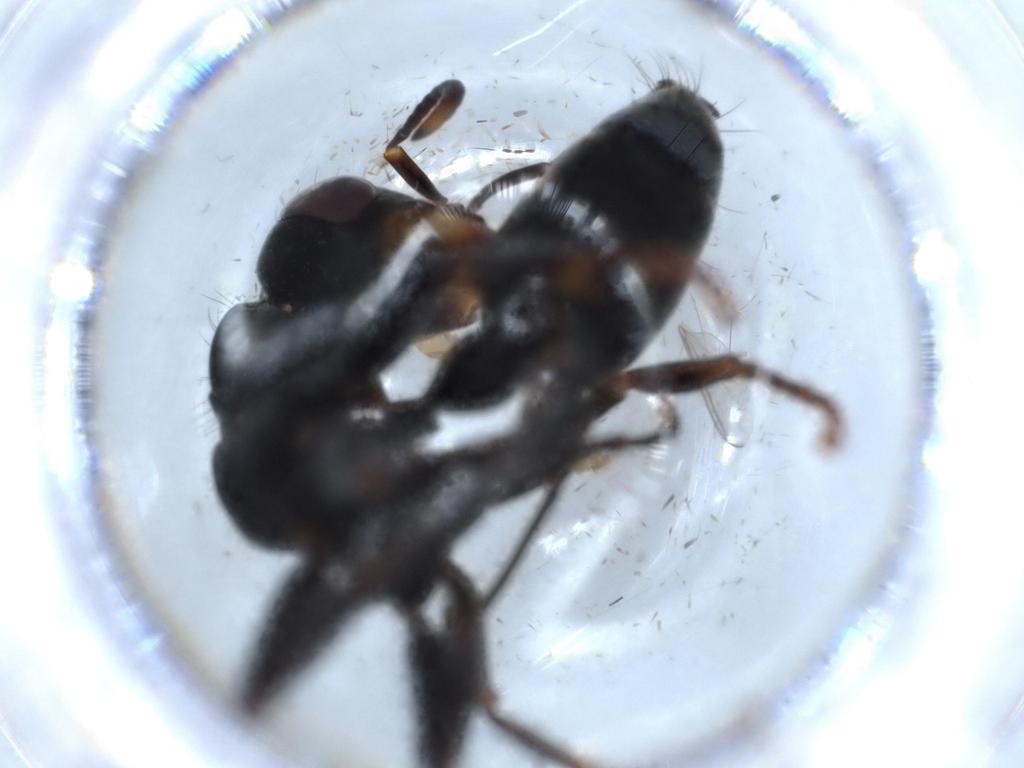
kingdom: Animalia
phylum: Arthropoda
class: Insecta
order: Hymenoptera
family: Formicidae
